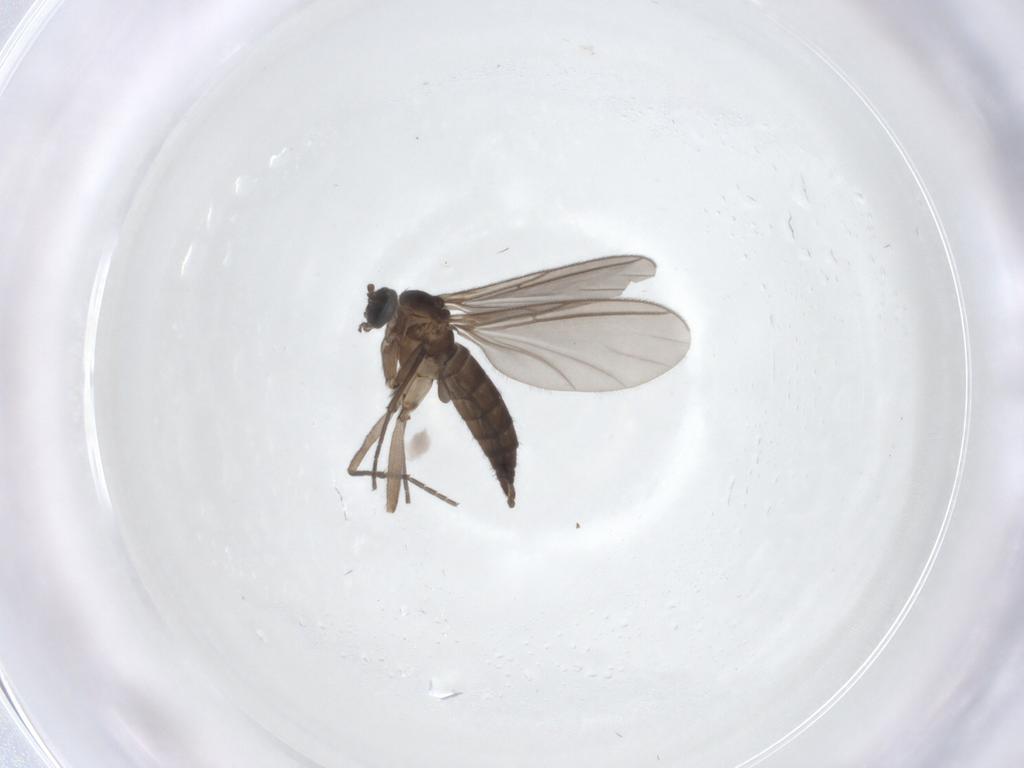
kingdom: Animalia
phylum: Arthropoda
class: Insecta
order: Diptera
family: Sciaridae
